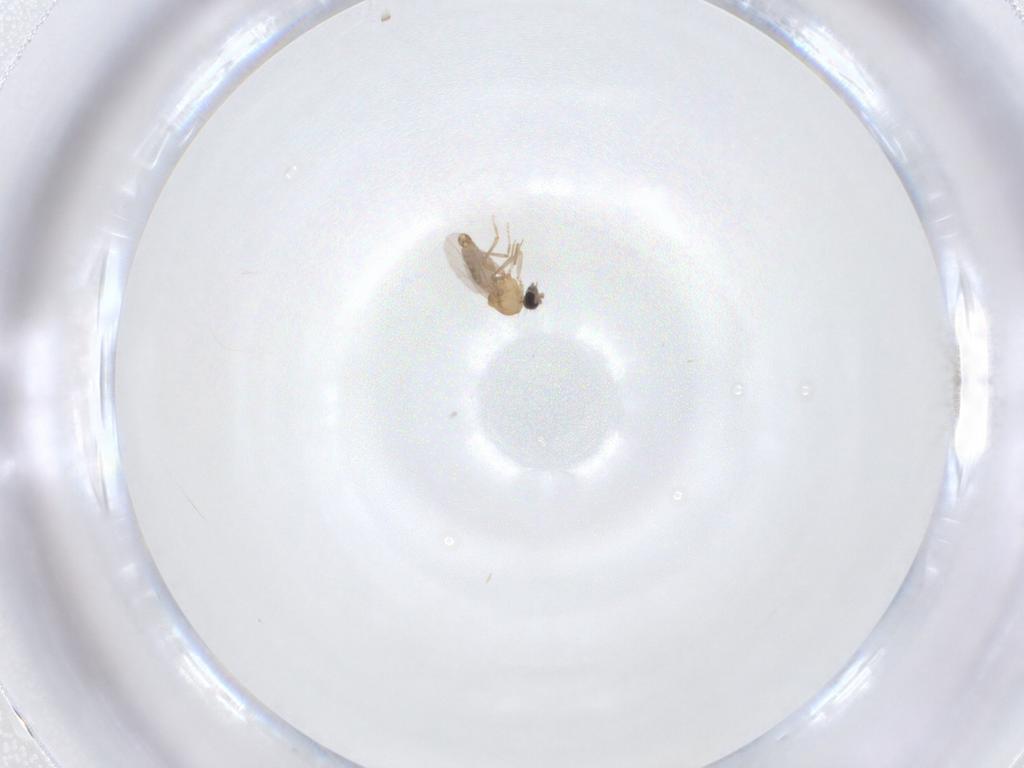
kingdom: Animalia
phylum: Arthropoda
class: Insecta
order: Diptera
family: Ceratopogonidae
